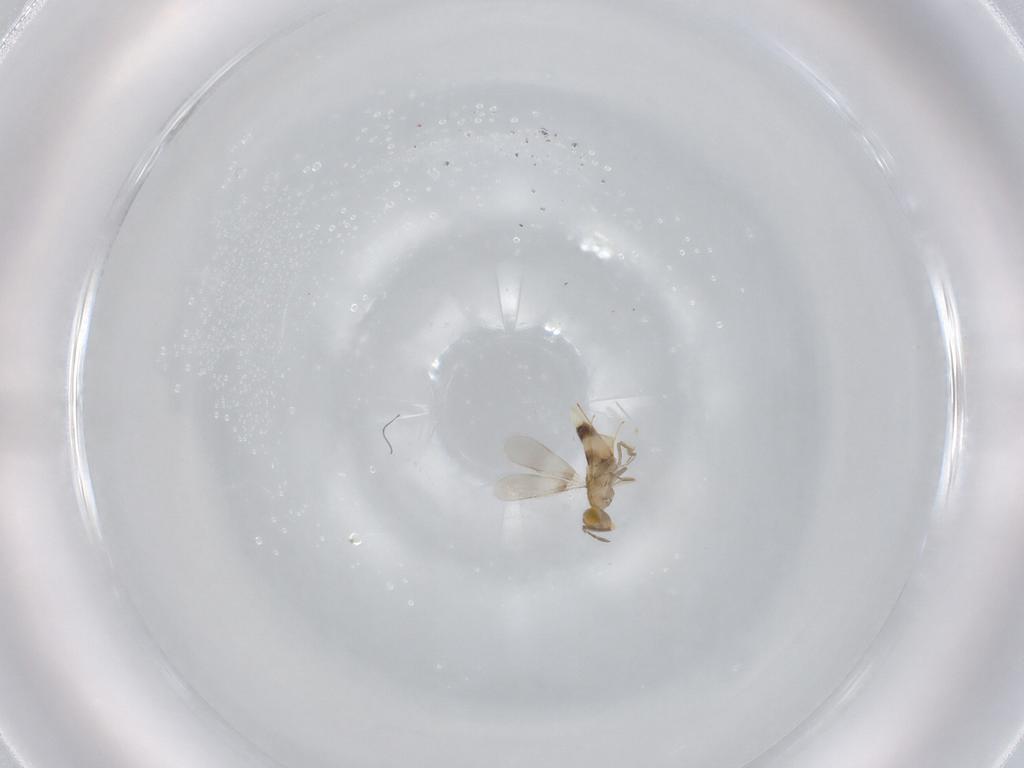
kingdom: Animalia
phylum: Arthropoda
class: Insecta
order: Hymenoptera
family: Aphelinidae
